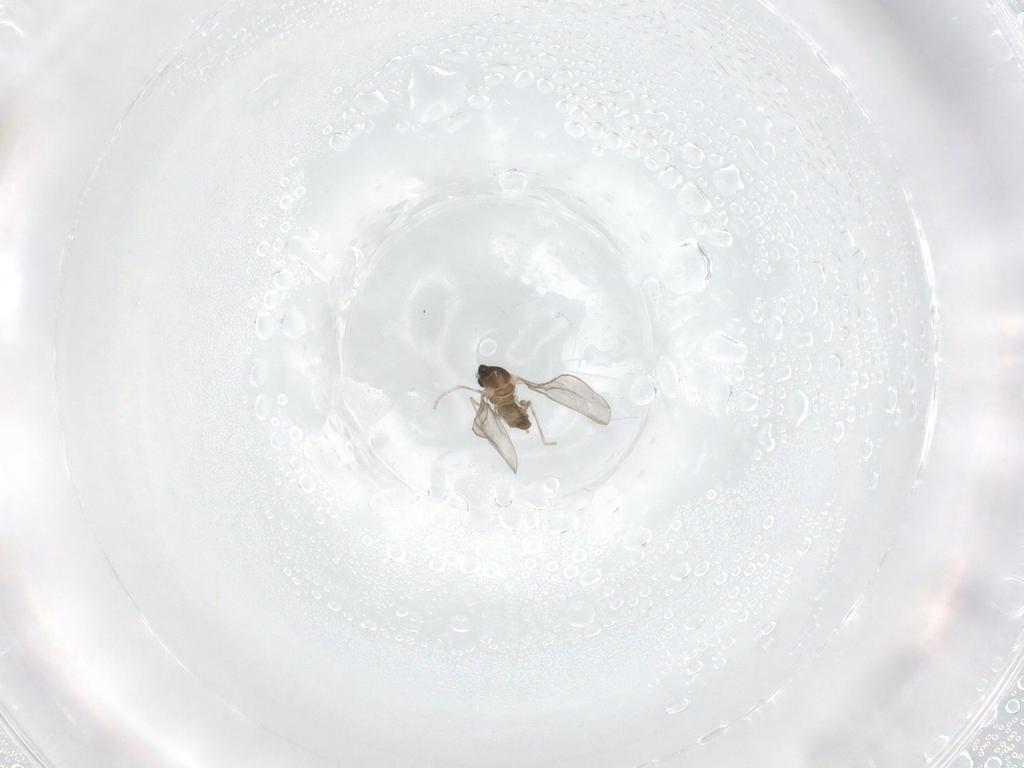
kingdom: Animalia
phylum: Arthropoda
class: Insecta
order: Diptera
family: Cecidomyiidae
